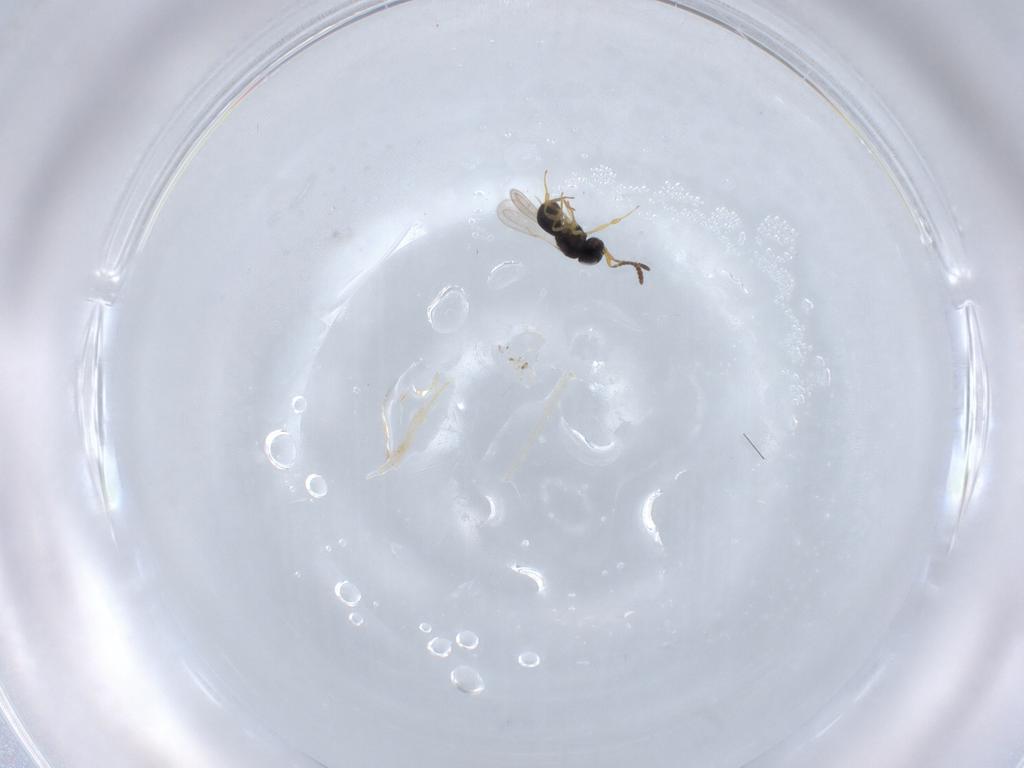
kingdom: Animalia
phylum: Arthropoda
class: Insecta
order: Hymenoptera
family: Scelionidae
